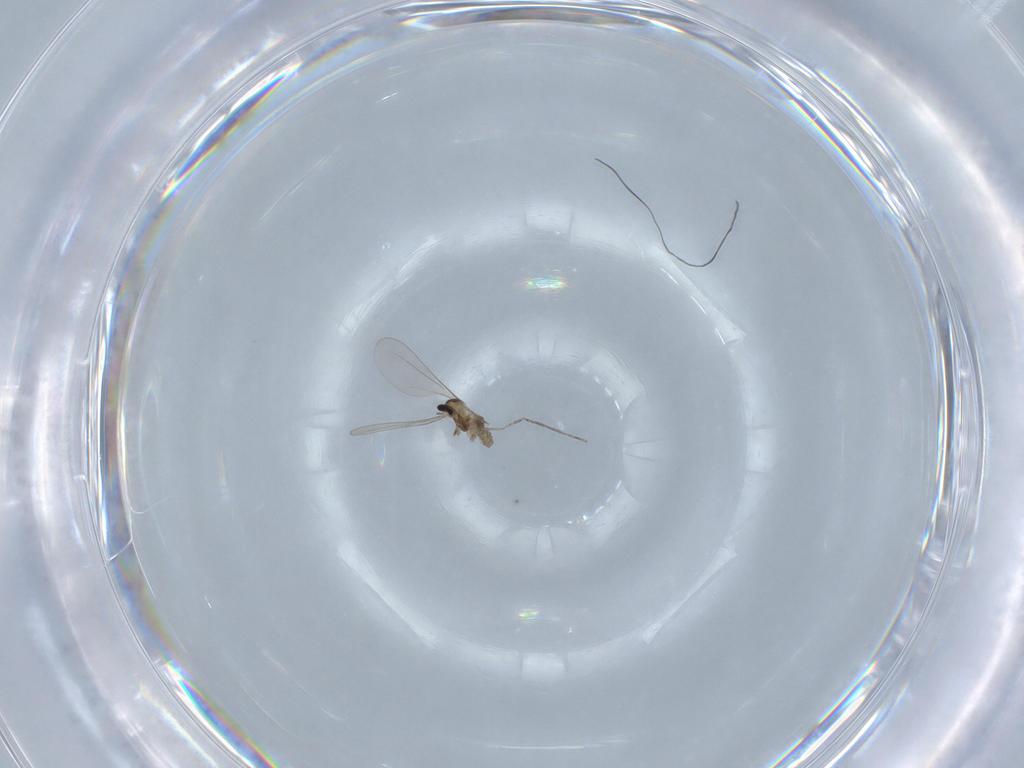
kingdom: Animalia
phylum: Arthropoda
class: Insecta
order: Diptera
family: Cecidomyiidae
